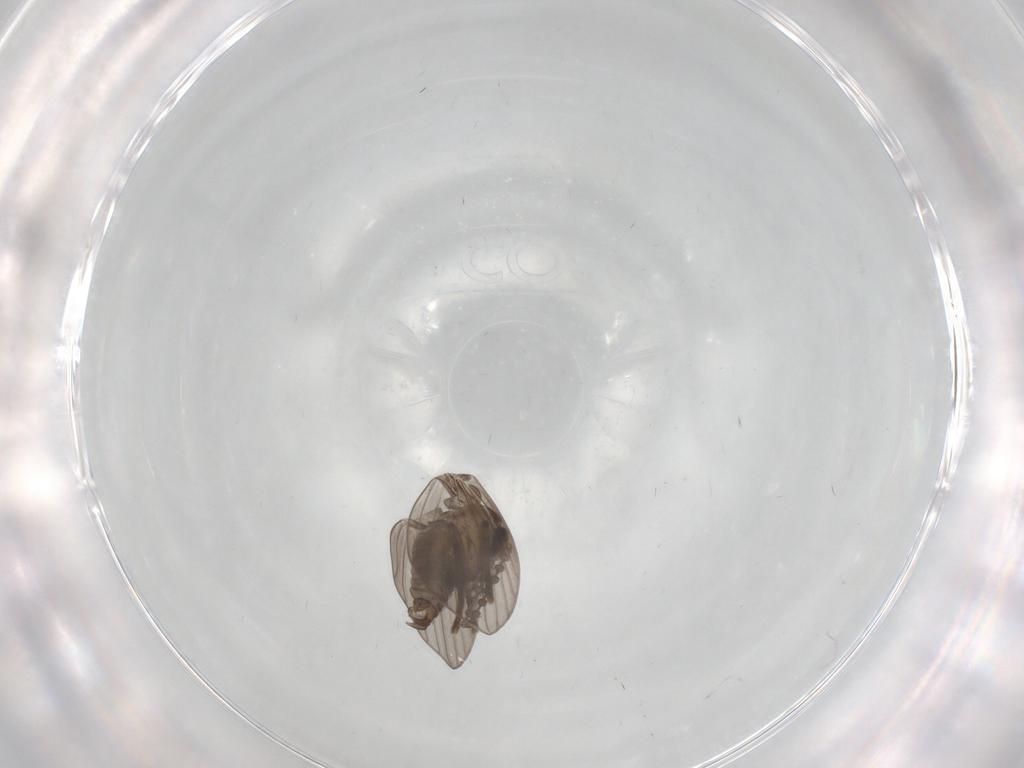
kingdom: Animalia
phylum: Arthropoda
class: Insecta
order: Diptera
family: Psychodidae
